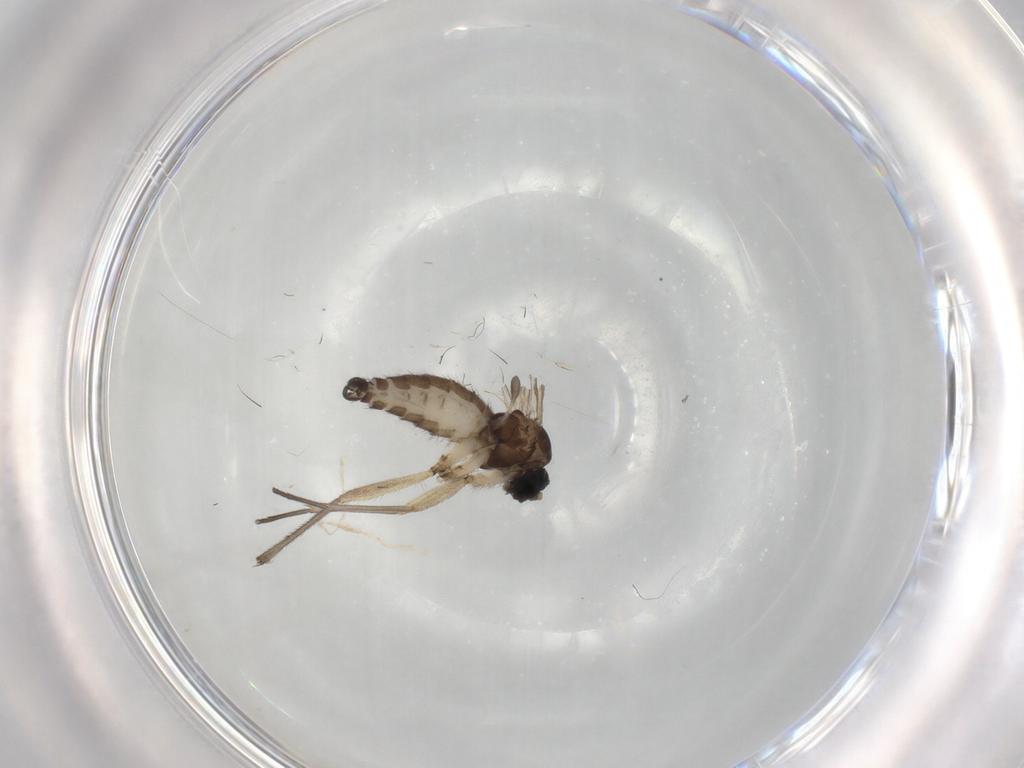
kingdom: Animalia
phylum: Arthropoda
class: Insecta
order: Diptera
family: Sciaridae
